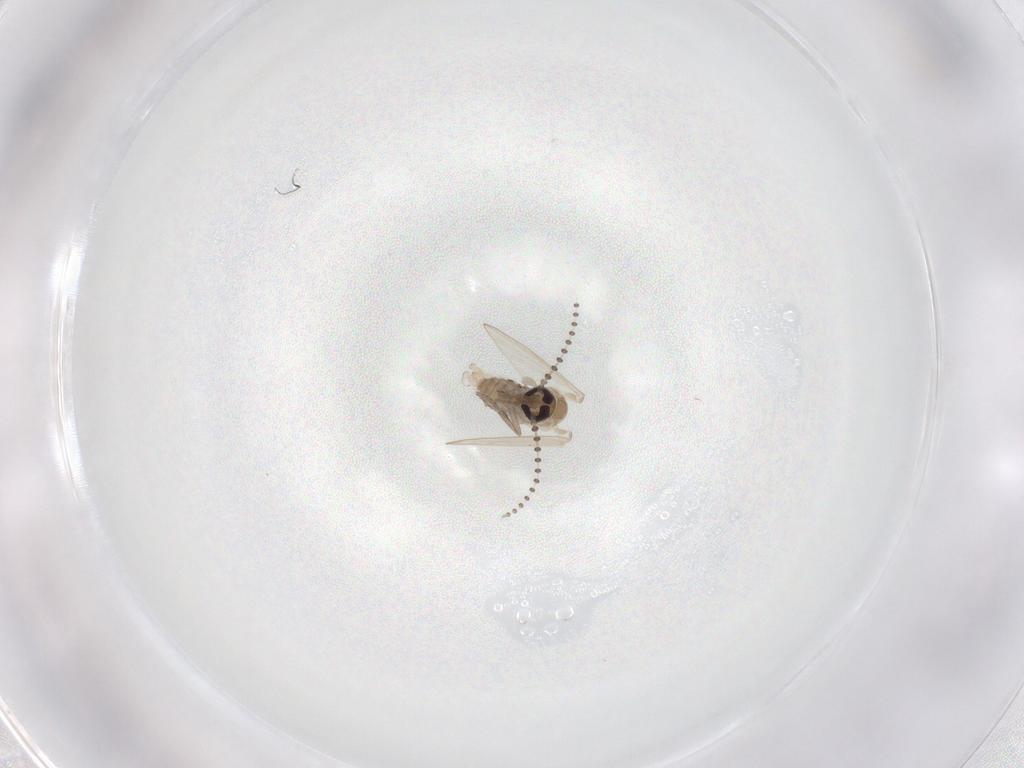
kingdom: Animalia
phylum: Arthropoda
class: Insecta
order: Diptera
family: Psychodidae
